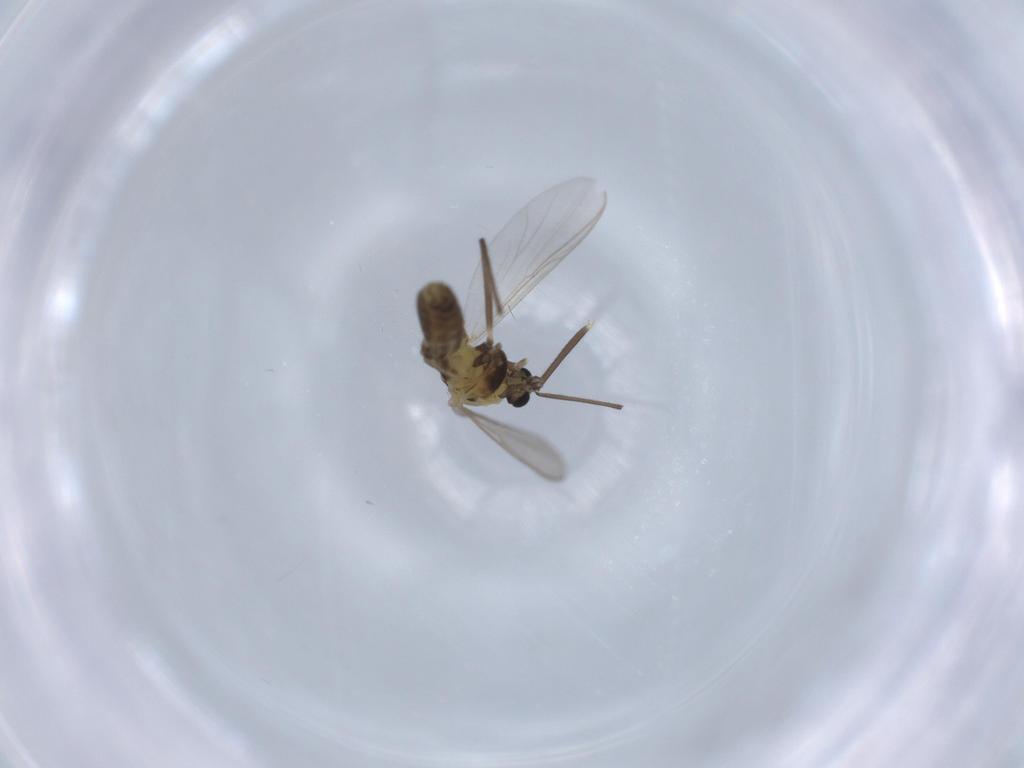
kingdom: Animalia
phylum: Arthropoda
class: Insecta
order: Diptera
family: Chironomidae
